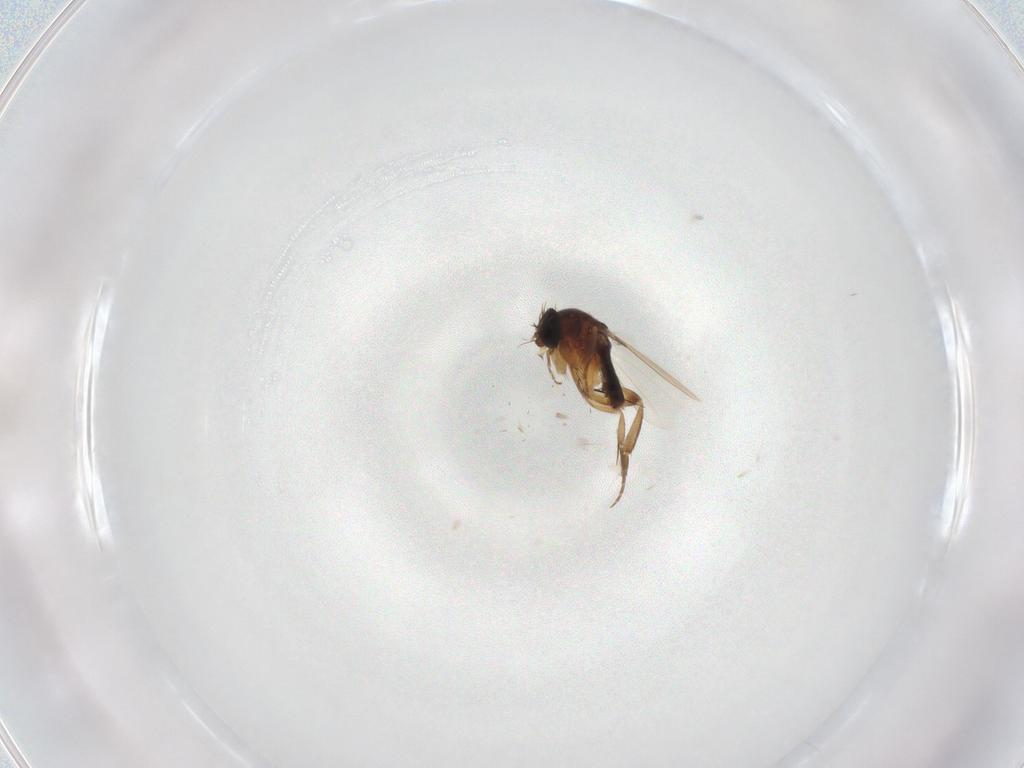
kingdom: Animalia
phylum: Arthropoda
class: Insecta
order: Diptera
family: Phoridae
